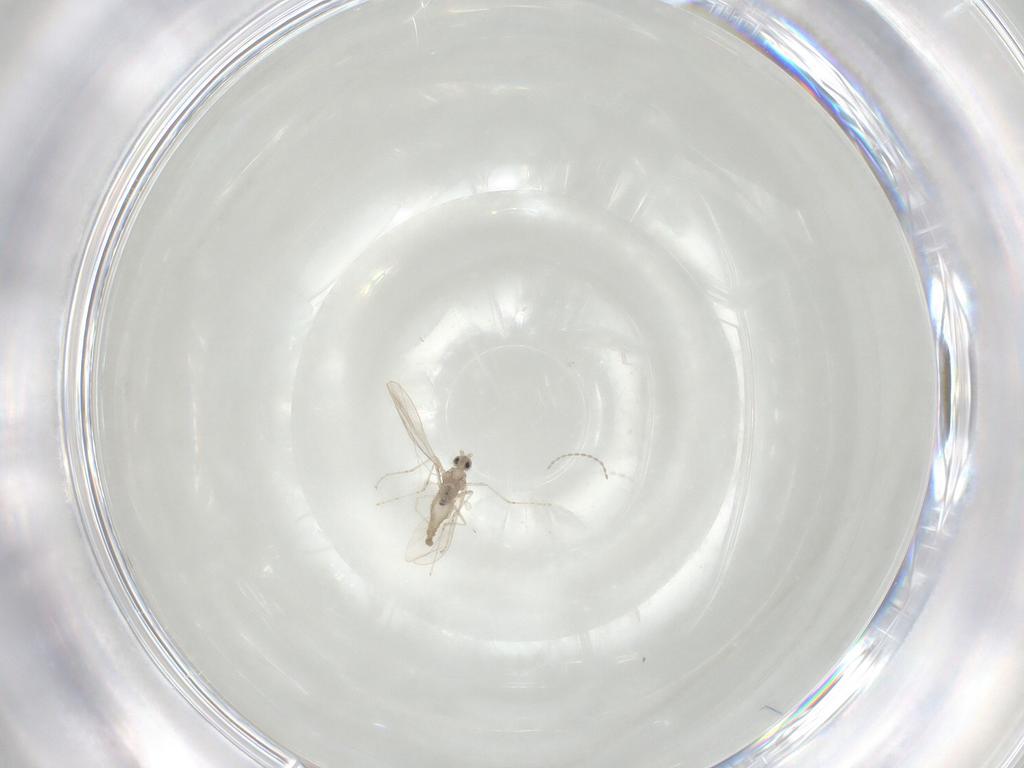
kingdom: Animalia
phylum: Arthropoda
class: Insecta
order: Diptera
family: Cecidomyiidae
